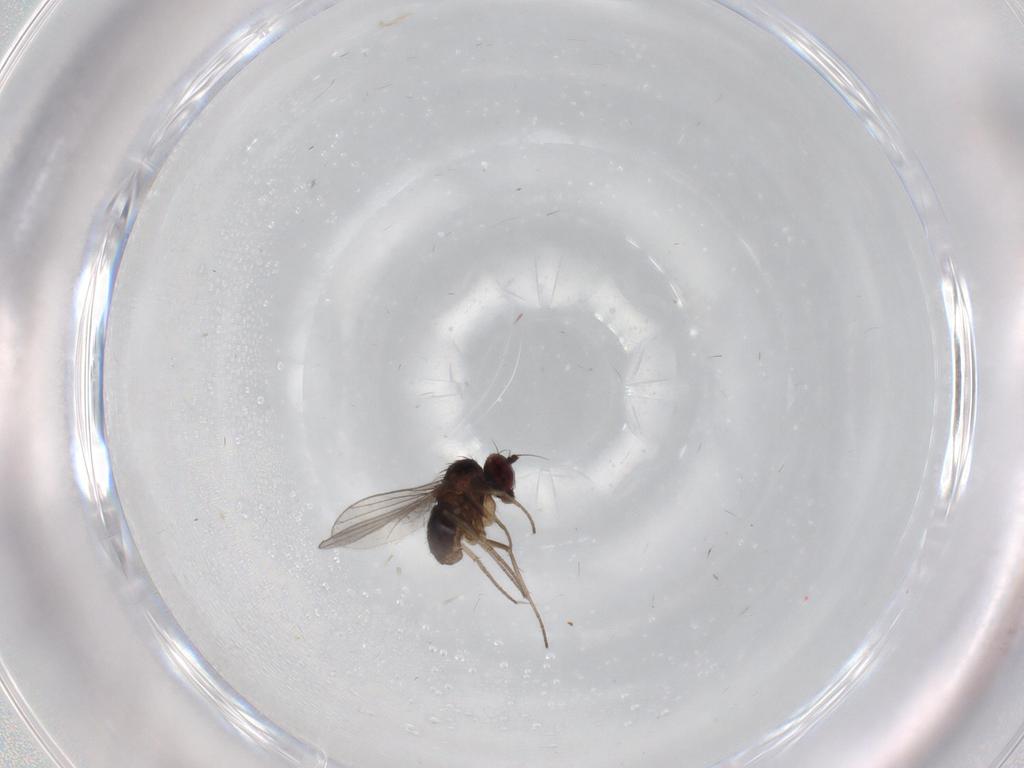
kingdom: Animalia
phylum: Arthropoda
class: Insecta
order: Diptera
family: Dolichopodidae
